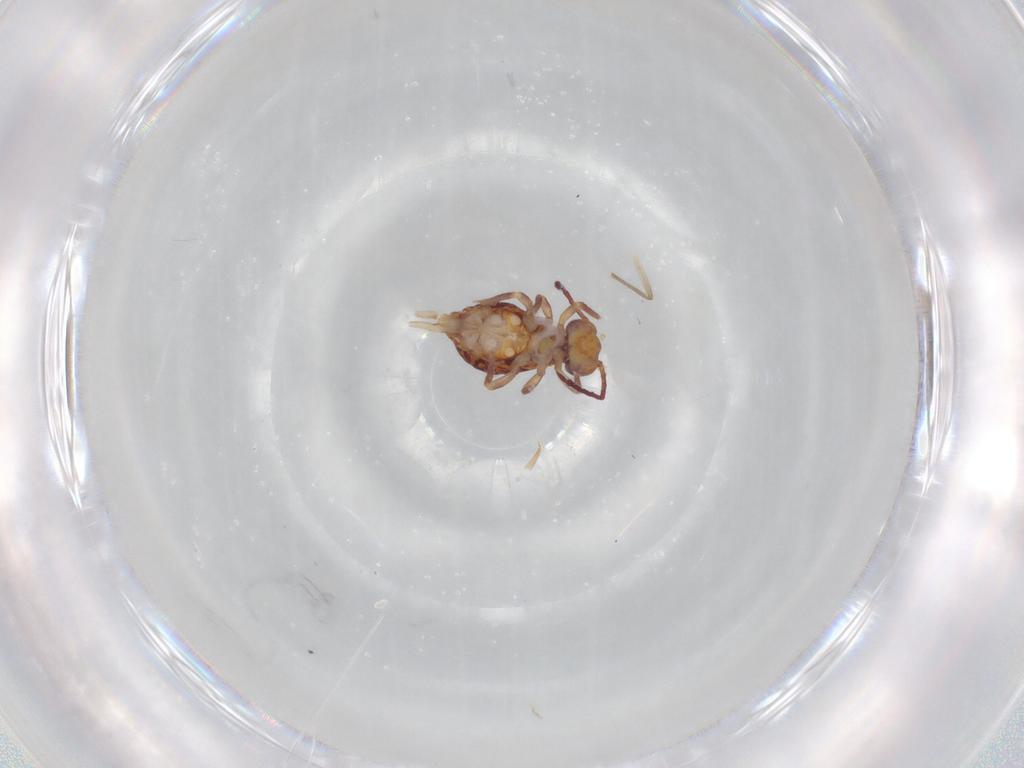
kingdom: Animalia
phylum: Arthropoda
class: Collembola
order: Symphypleona
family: Dicyrtomidae
